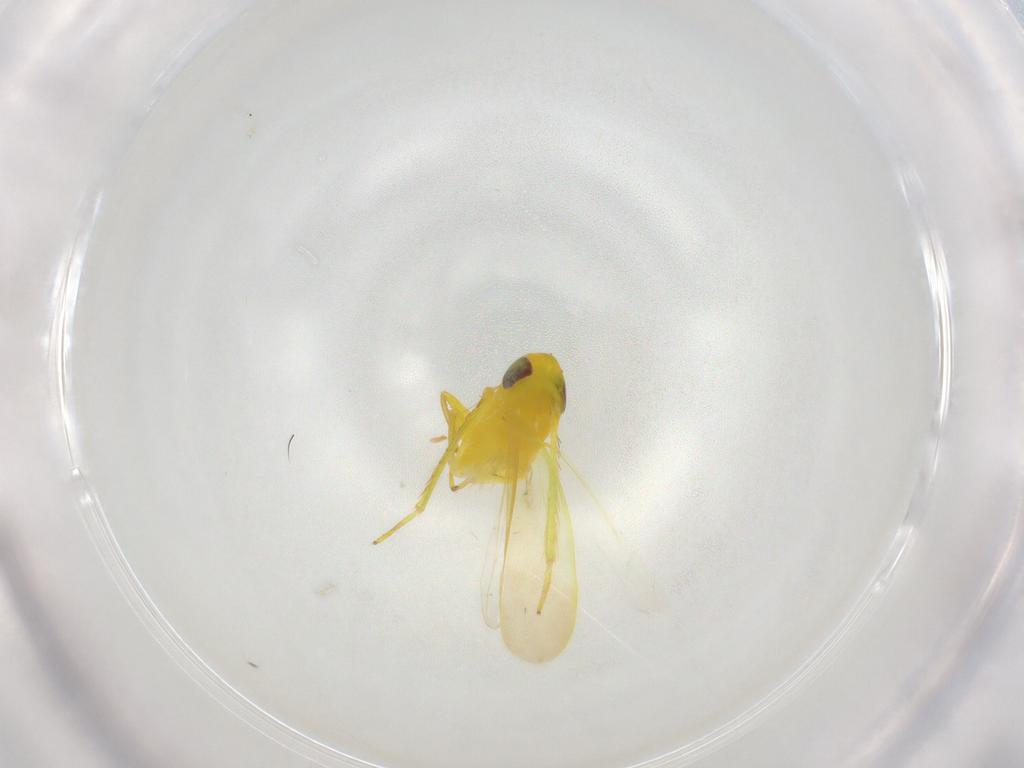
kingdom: Animalia
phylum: Arthropoda
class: Insecta
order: Hemiptera
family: Cicadellidae
